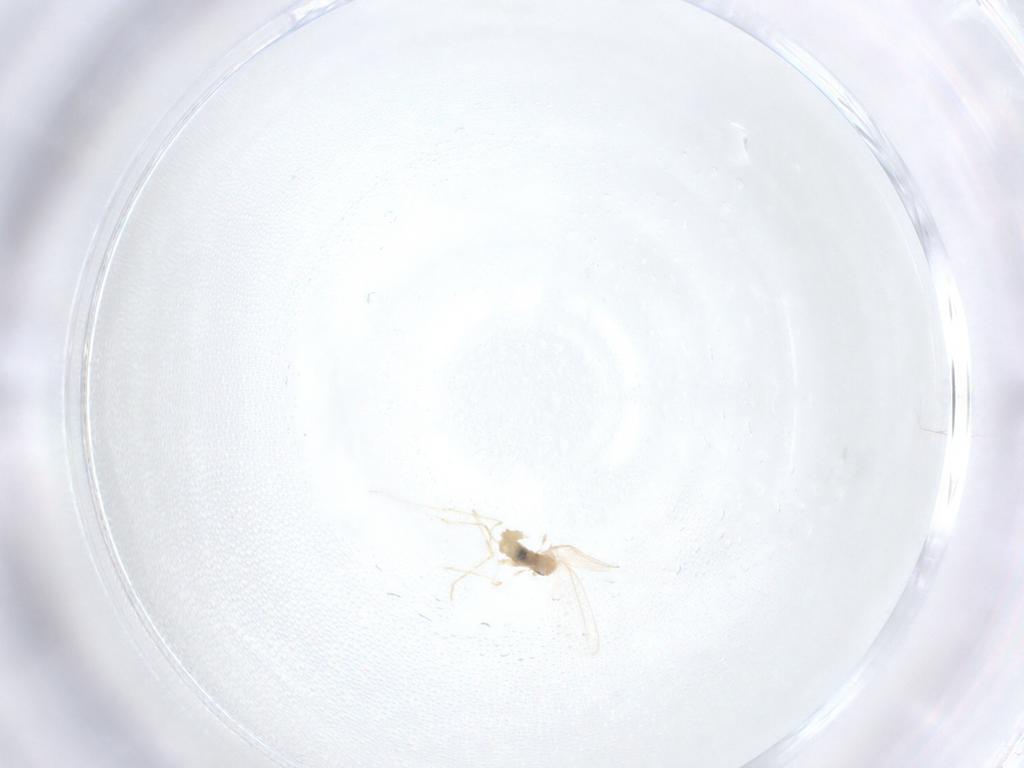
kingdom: Animalia
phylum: Arthropoda
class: Insecta
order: Diptera
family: Cecidomyiidae
